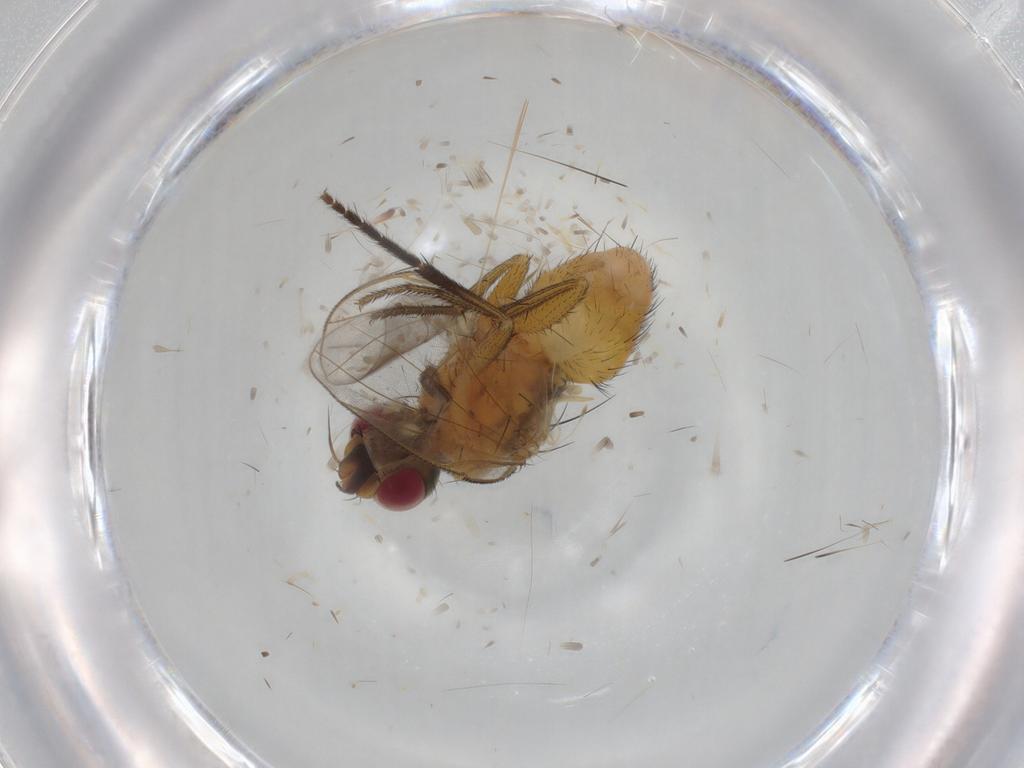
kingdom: Animalia
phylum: Arthropoda
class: Insecta
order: Diptera
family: Muscidae
